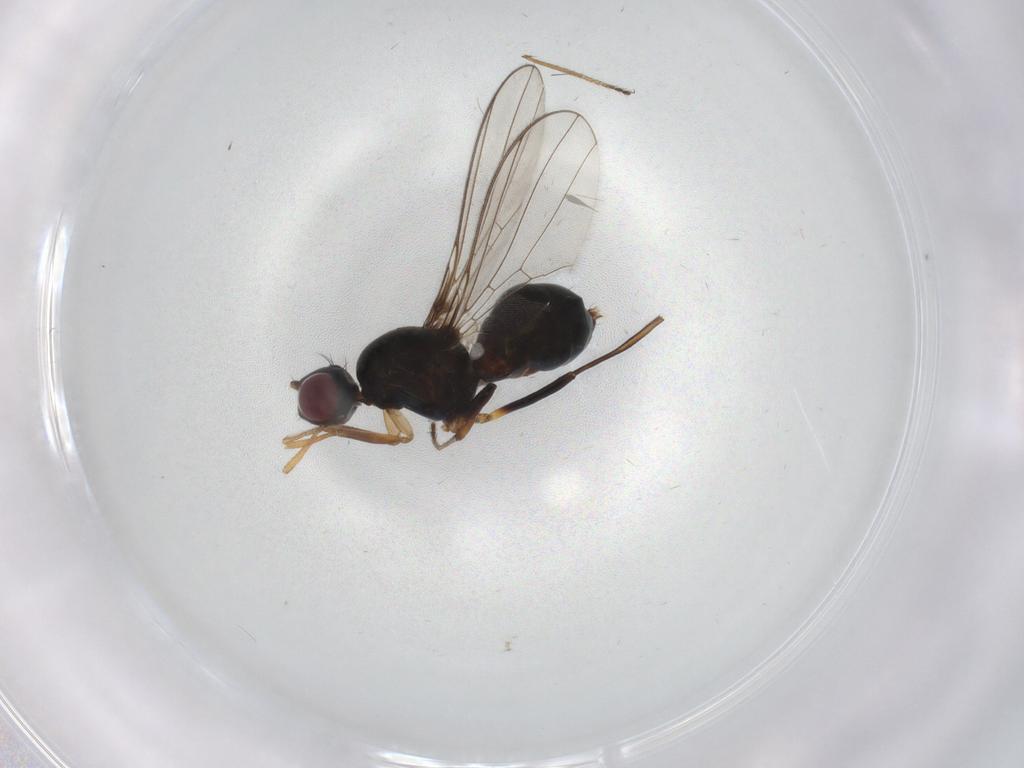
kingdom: Animalia
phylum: Arthropoda
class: Insecta
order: Diptera
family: Sepsidae
